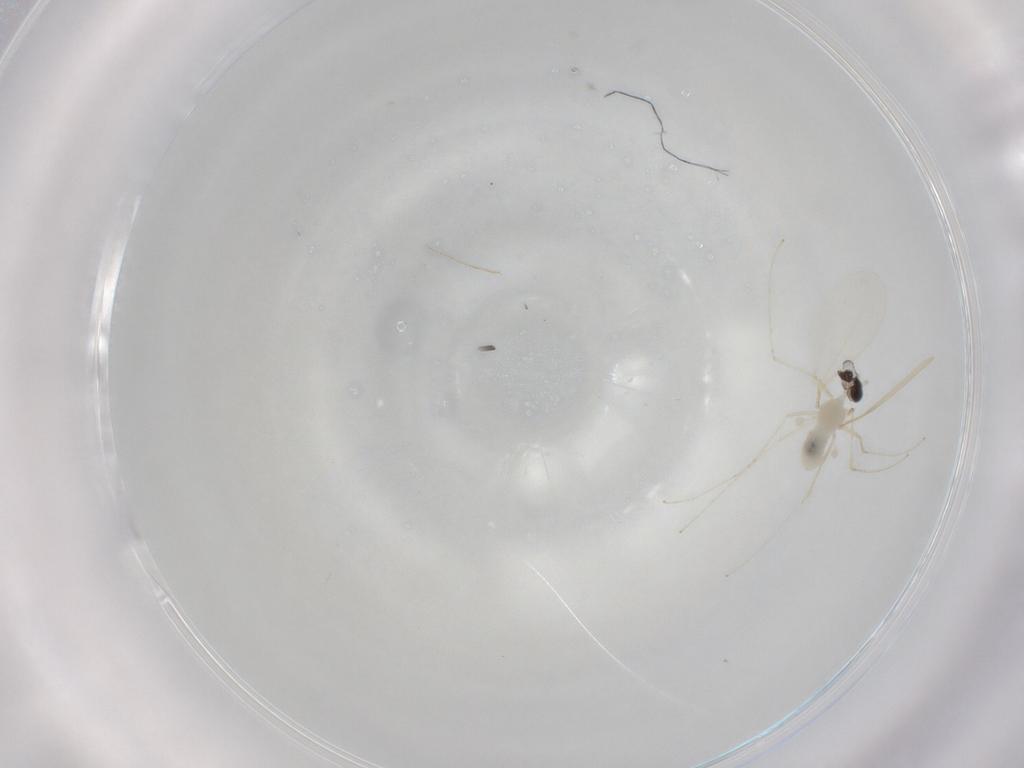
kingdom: Animalia
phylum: Arthropoda
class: Insecta
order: Diptera
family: Cecidomyiidae
